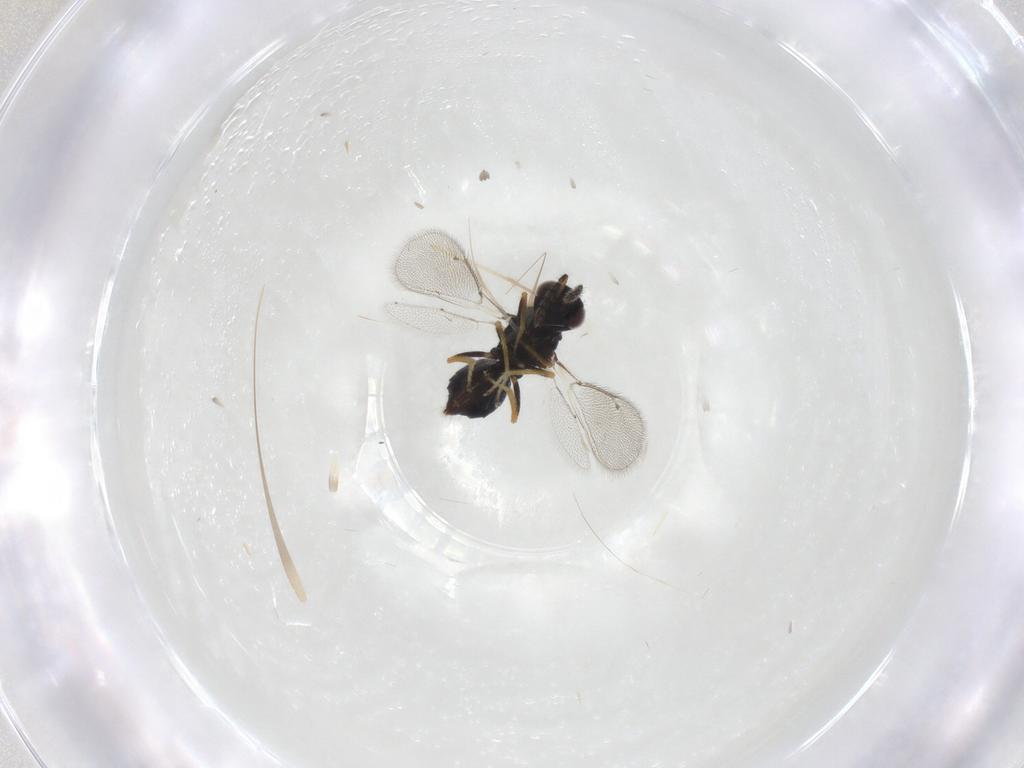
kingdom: Animalia
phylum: Arthropoda
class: Insecta
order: Hymenoptera
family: Eulophidae
